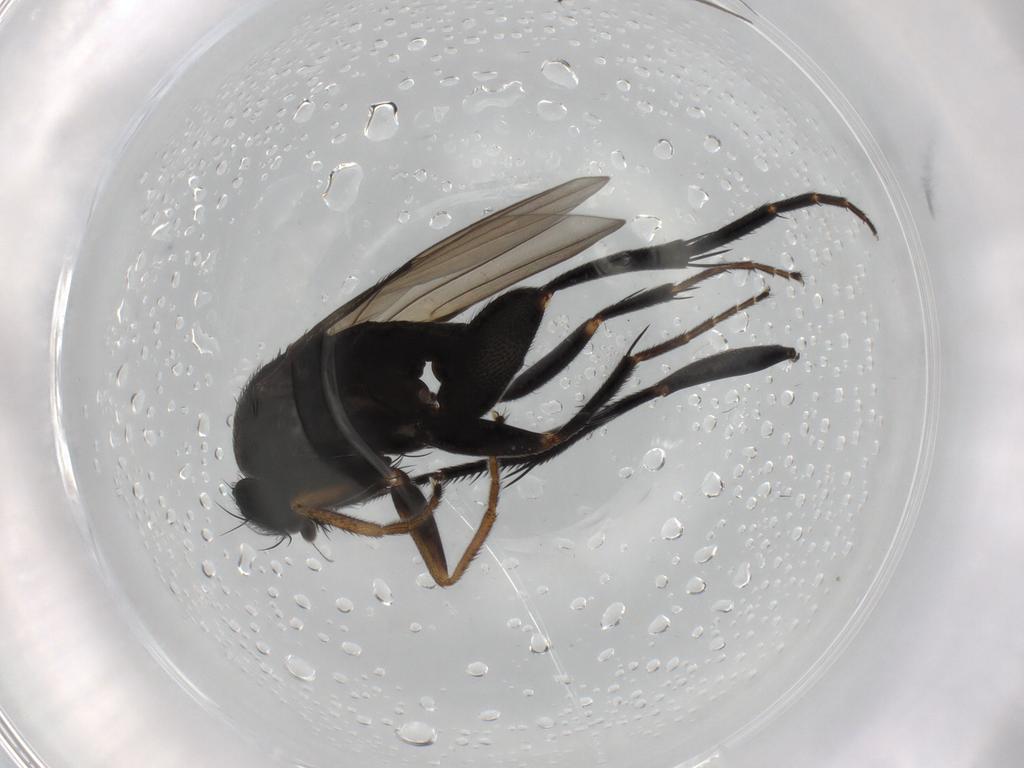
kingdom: Animalia
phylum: Arthropoda
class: Insecta
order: Diptera
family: Phoridae
